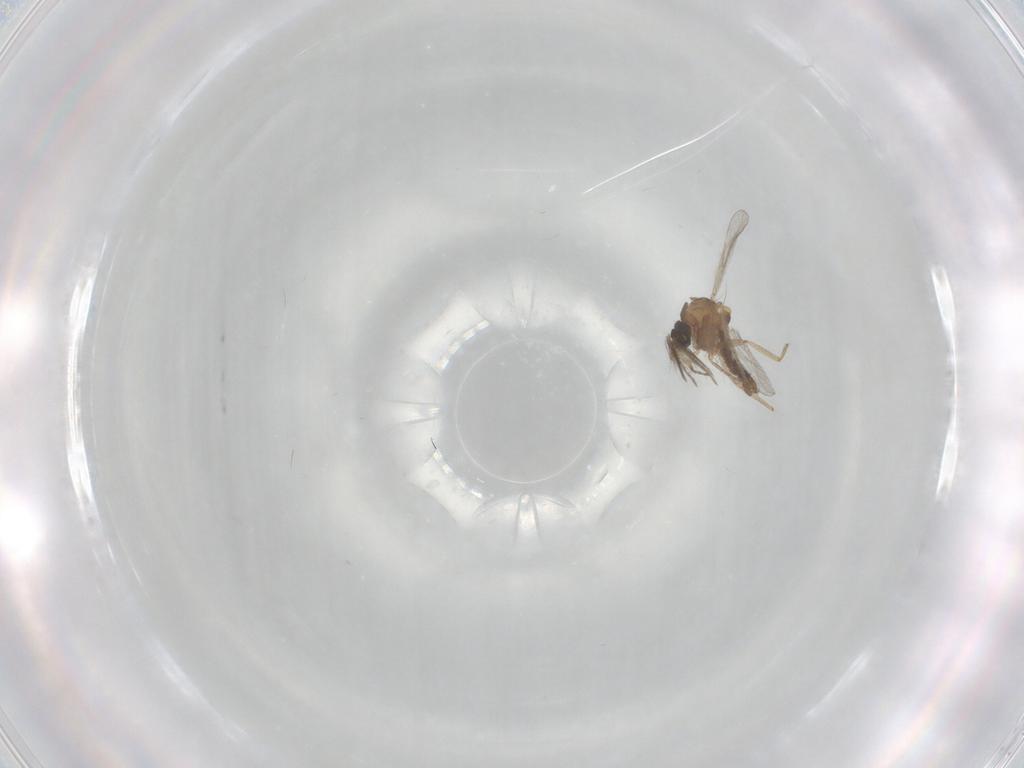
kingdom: Animalia
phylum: Arthropoda
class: Insecta
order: Diptera
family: Ceratopogonidae
